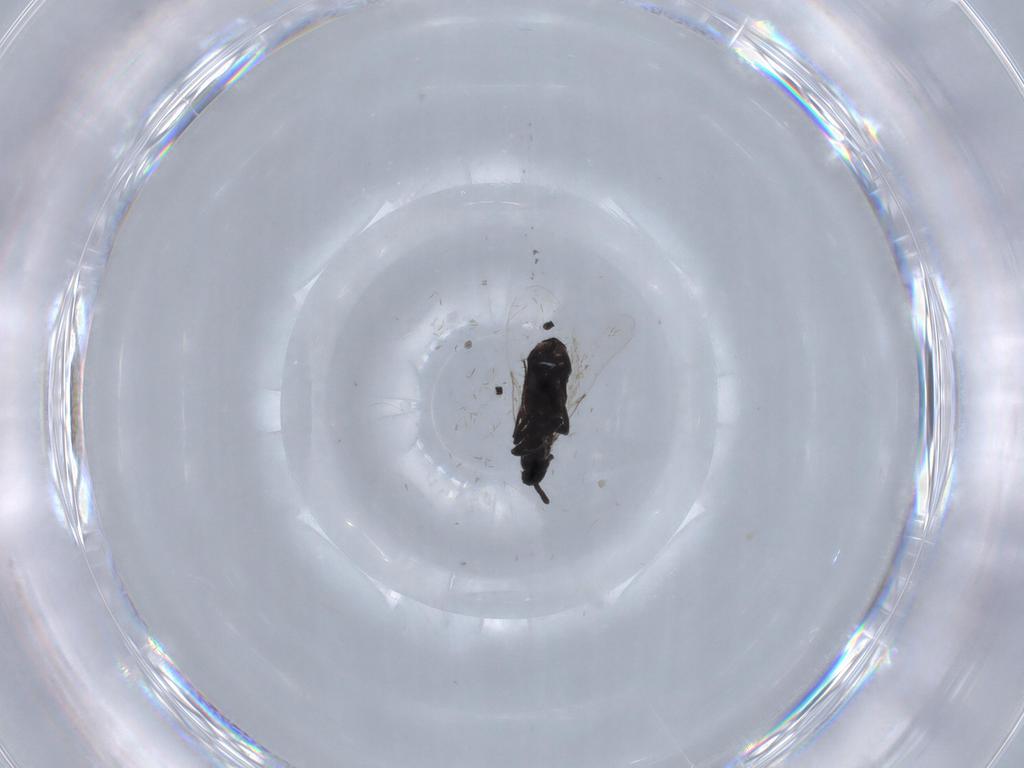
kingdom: Animalia
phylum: Arthropoda
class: Insecta
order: Diptera
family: Scatopsidae
